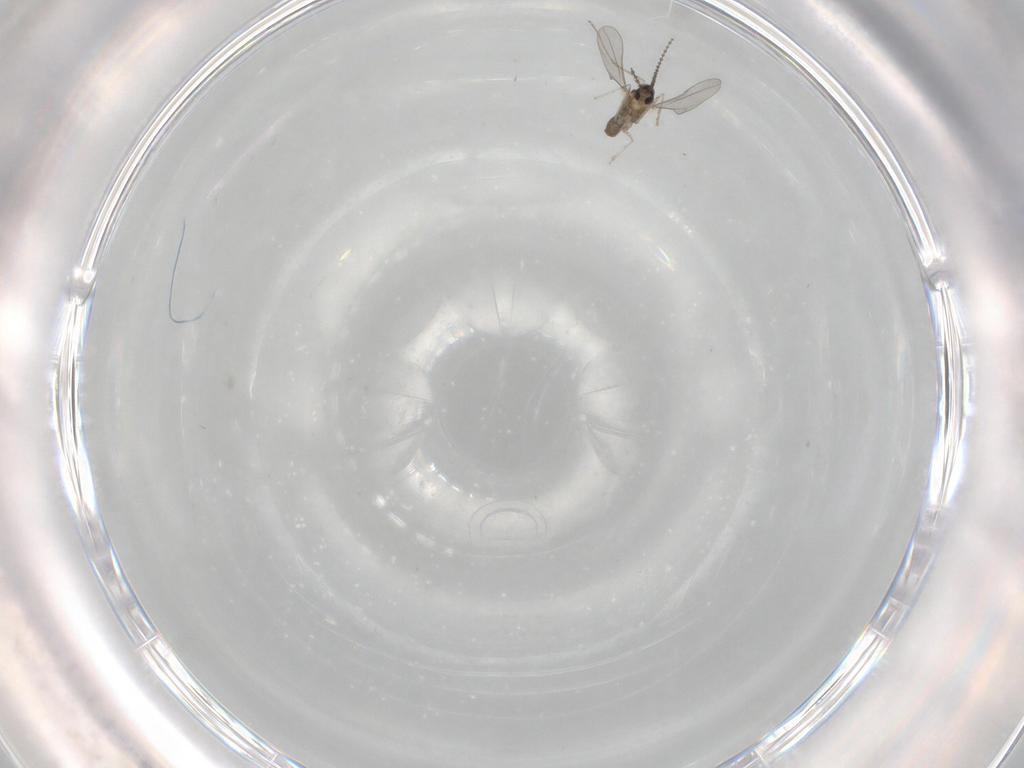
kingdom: Animalia
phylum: Arthropoda
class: Insecta
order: Diptera
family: Cecidomyiidae
